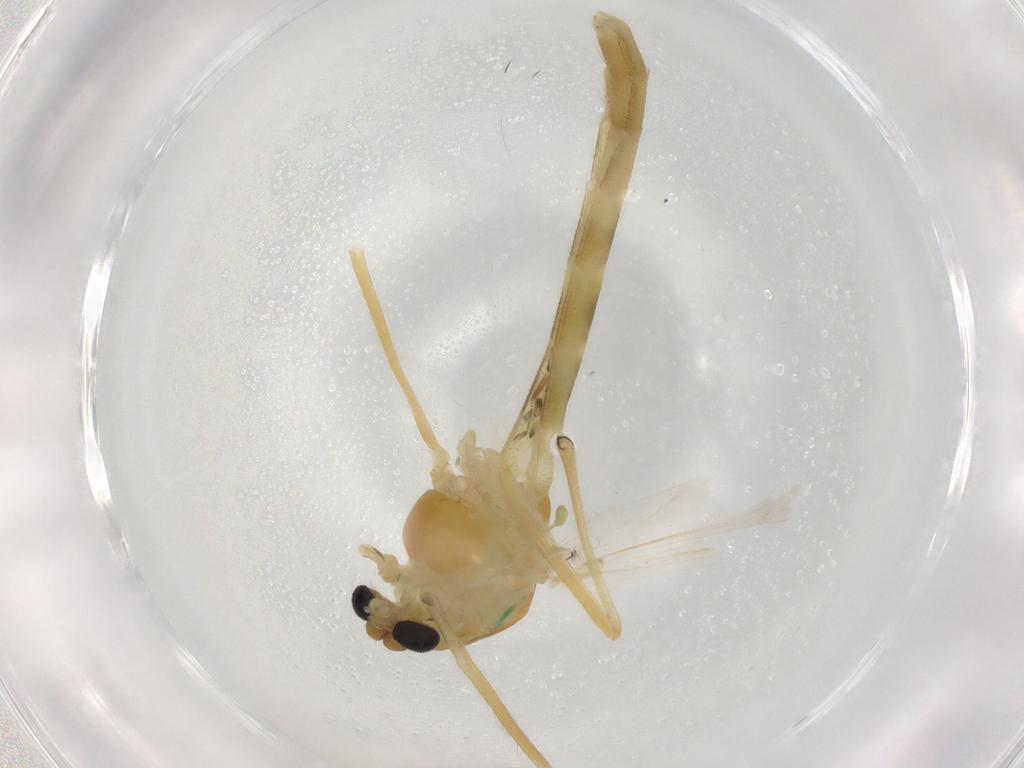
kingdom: Animalia
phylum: Arthropoda
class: Insecta
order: Diptera
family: Chironomidae
